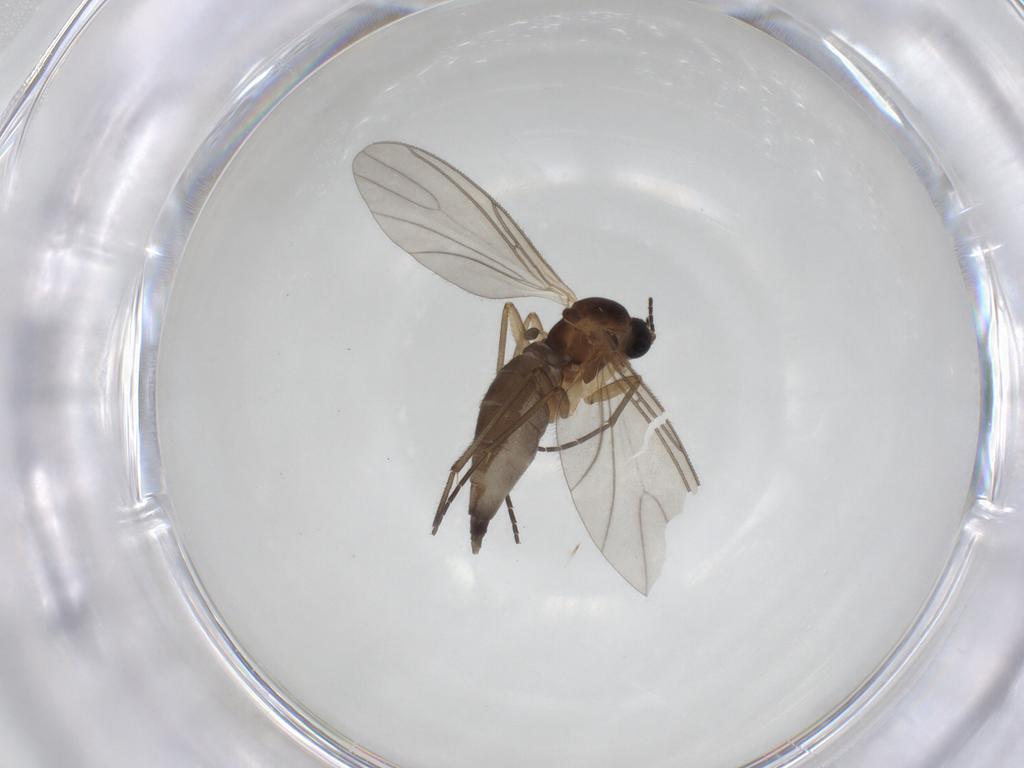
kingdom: Animalia
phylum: Arthropoda
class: Insecta
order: Diptera
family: Sciaridae
